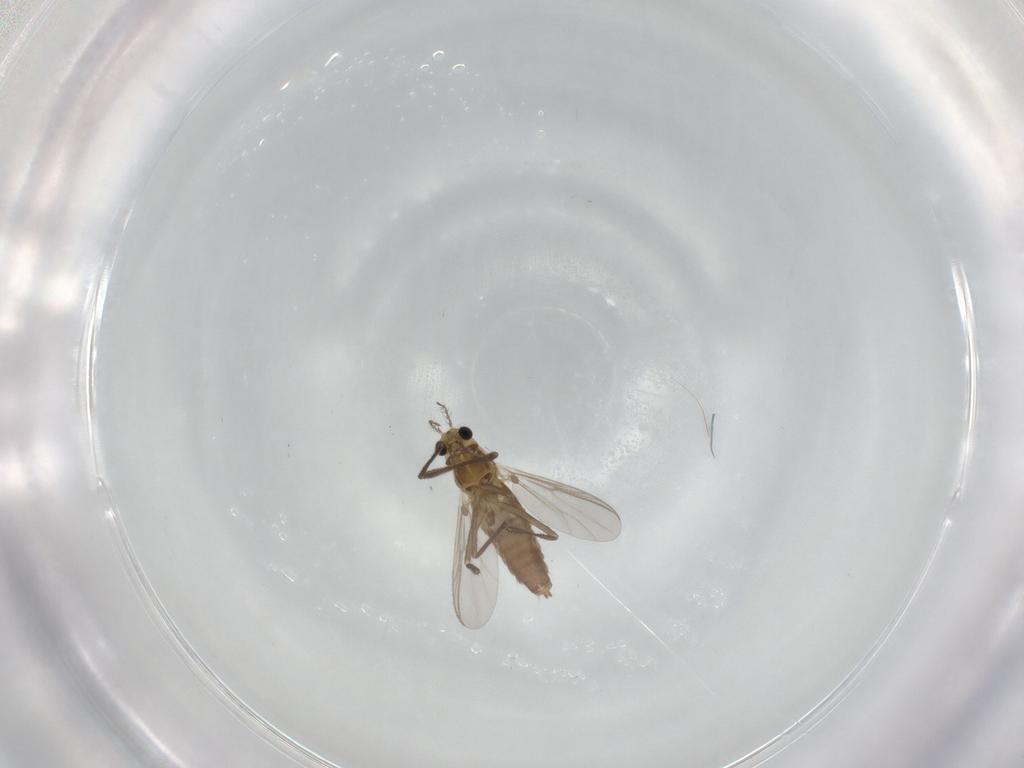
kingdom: Animalia
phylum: Arthropoda
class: Insecta
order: Diptera
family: Chironomidae
